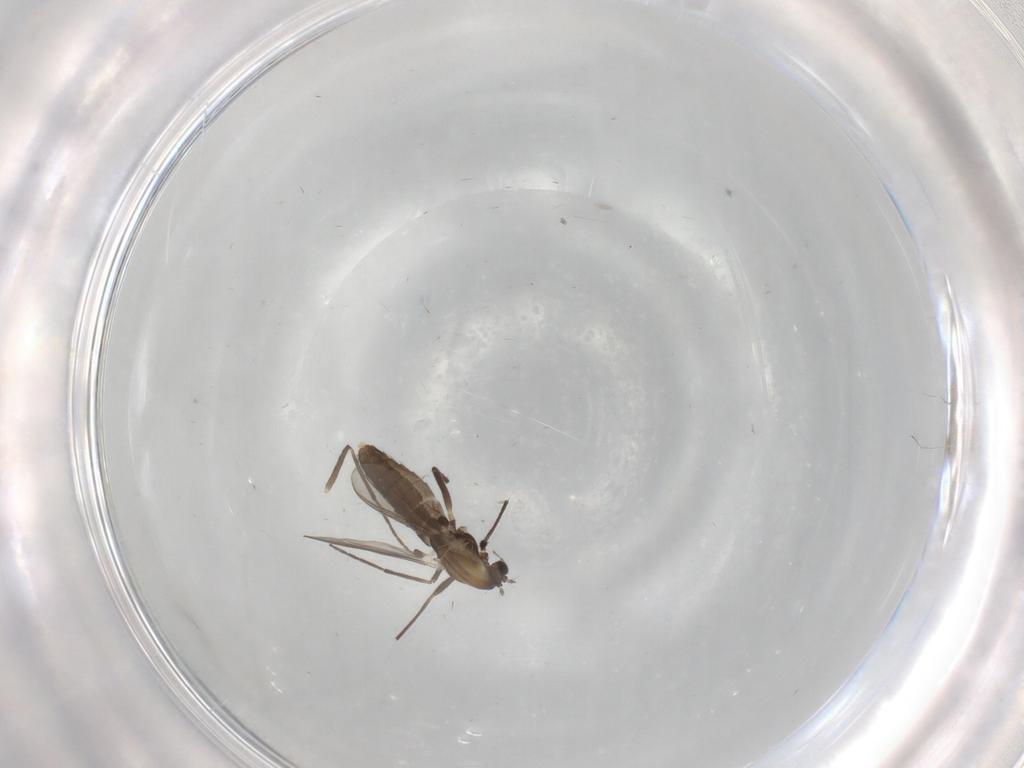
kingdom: Animalia
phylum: Arthropoda
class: Insecta
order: Diptera
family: Chironomidae
